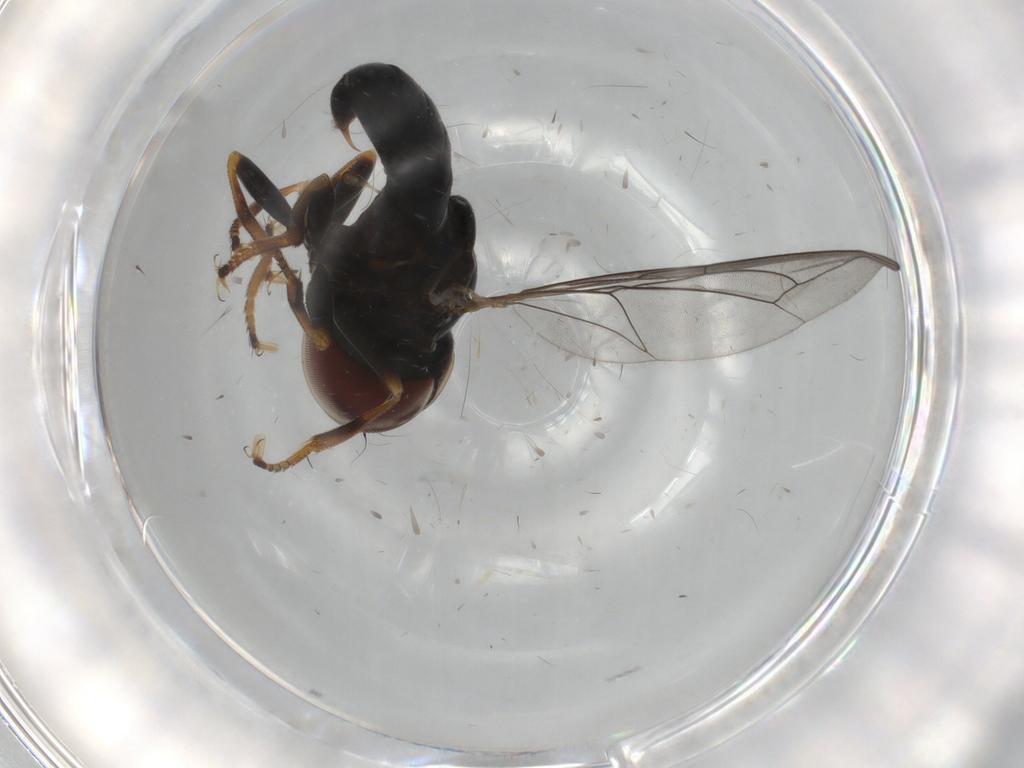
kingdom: Animalia
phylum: Arthropoda
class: Insecta
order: Diptera
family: Pipunculidae
